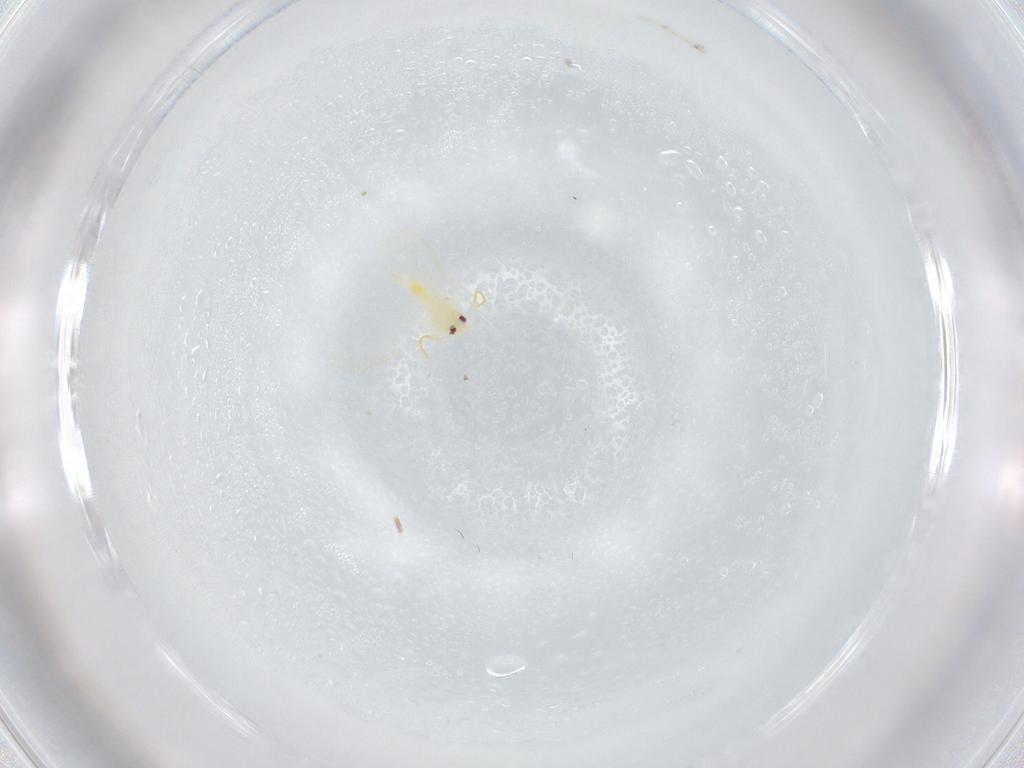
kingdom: Animalia
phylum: Arthropoda
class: Insecta
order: Hemiptera
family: Aleyrodidae
